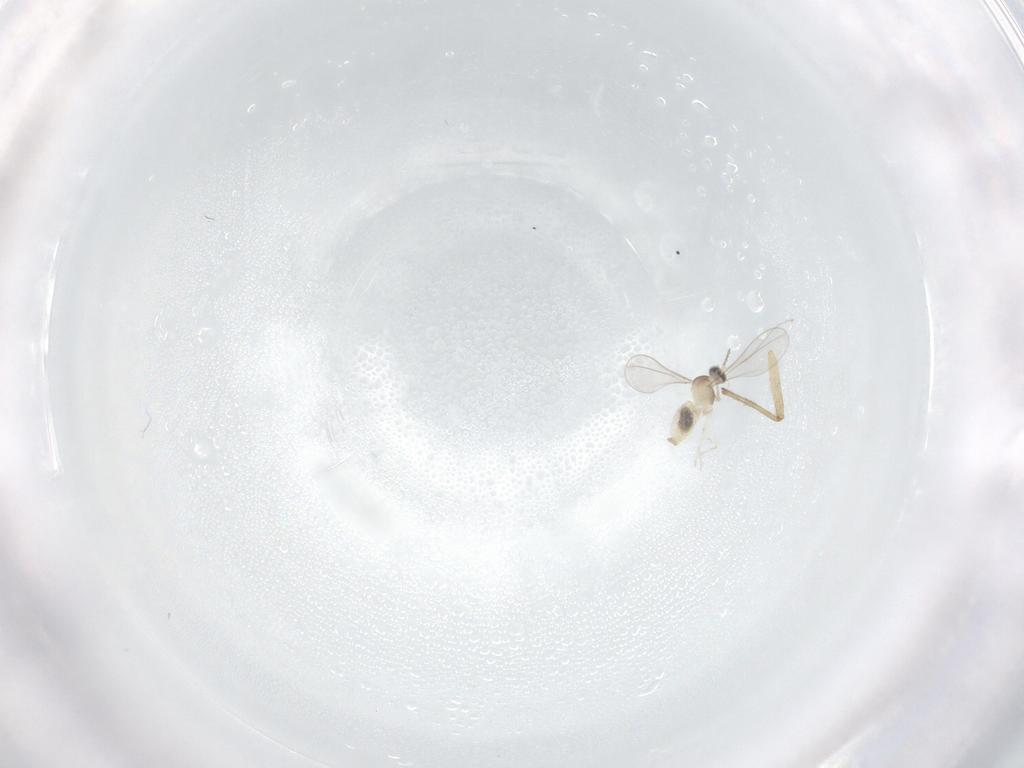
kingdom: Animalia
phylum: Arthropoda
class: Insecta
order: Diptera
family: Cecidomyiidae
